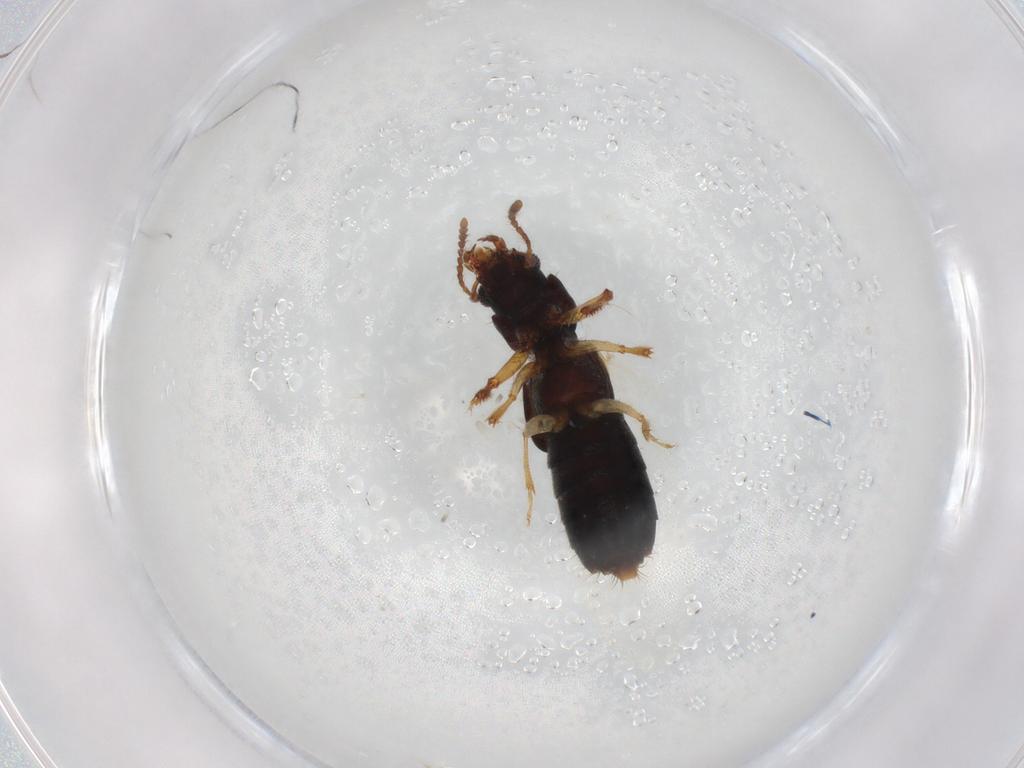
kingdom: Animalia
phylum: Arthropoda
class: Insecta
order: Coleoptera
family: Staphylinidae
